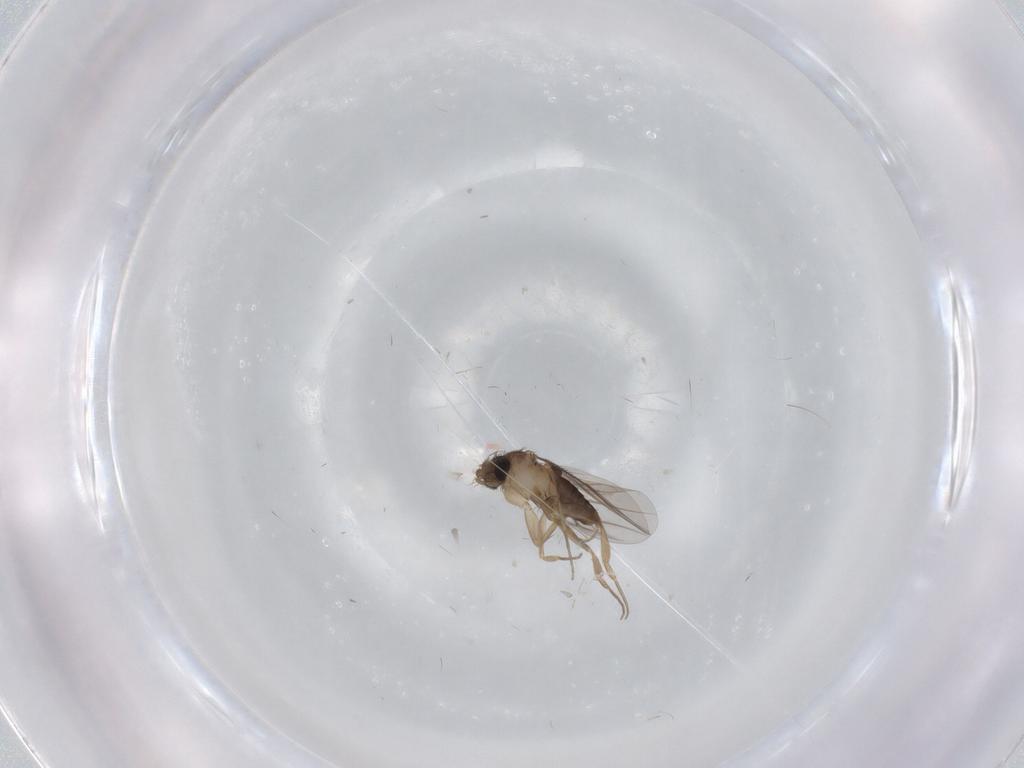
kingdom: Animalia
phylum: Arthropoda
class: Insecta
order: Diptera
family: Phoridae
